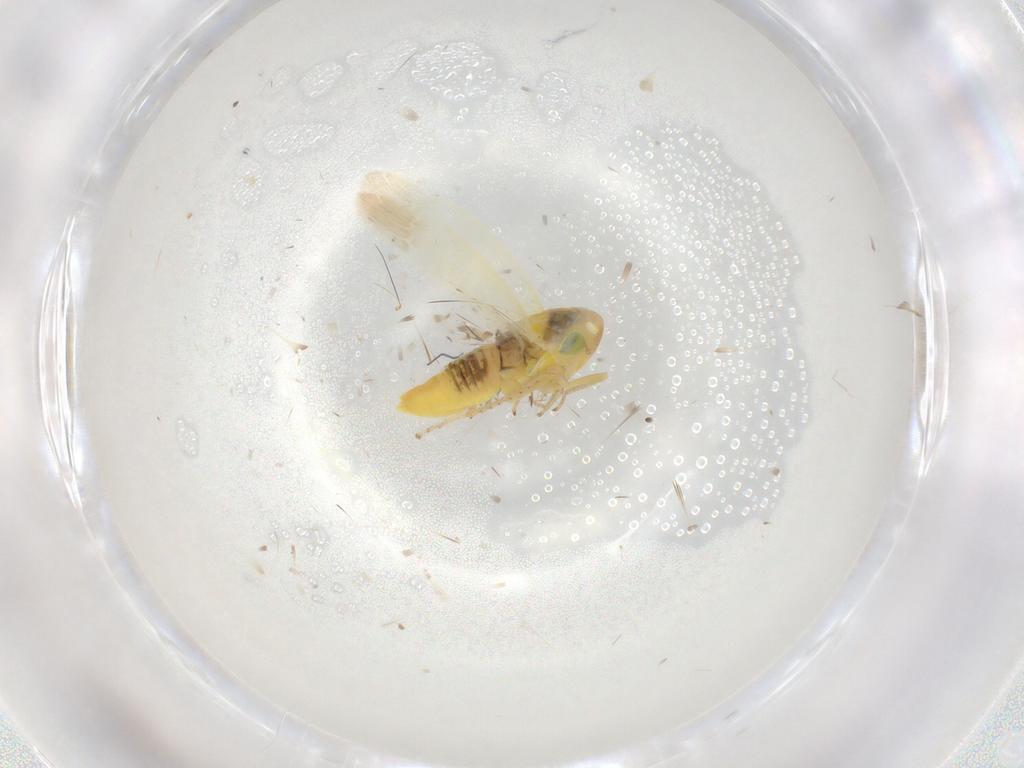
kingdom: Animalia
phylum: Arthropoda
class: Insecta
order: Hemiptera
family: Cicadellidae
